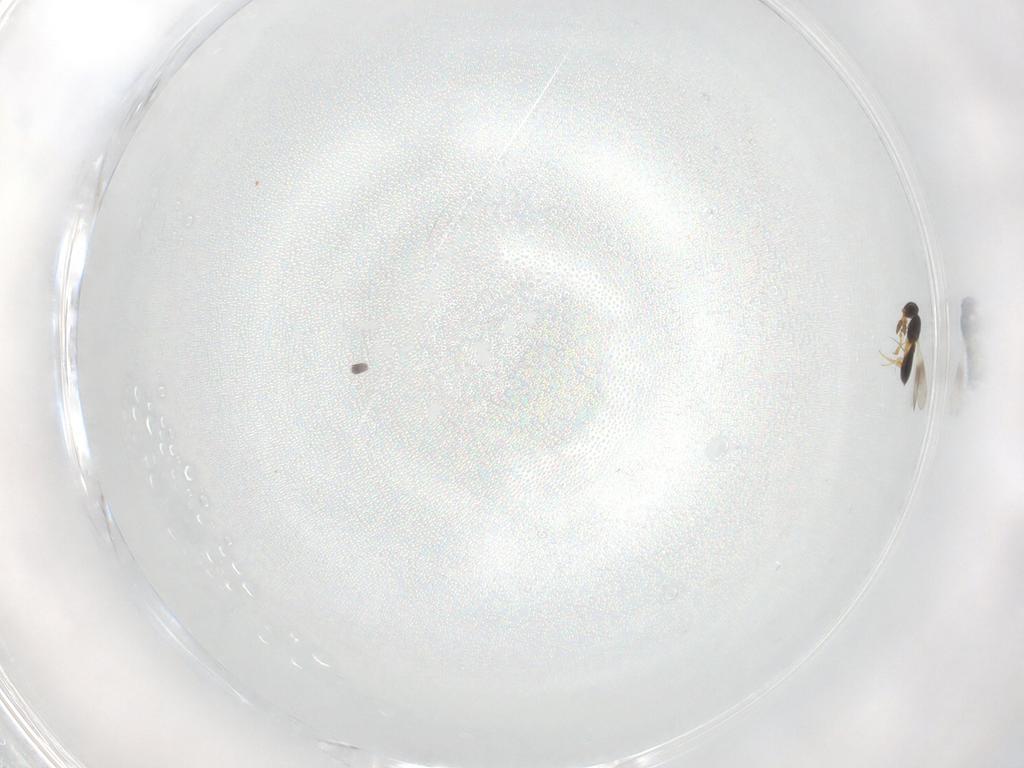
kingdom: Animalia
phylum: Arthropoda
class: Insecta
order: Hymenoptera
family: Platygastridae
